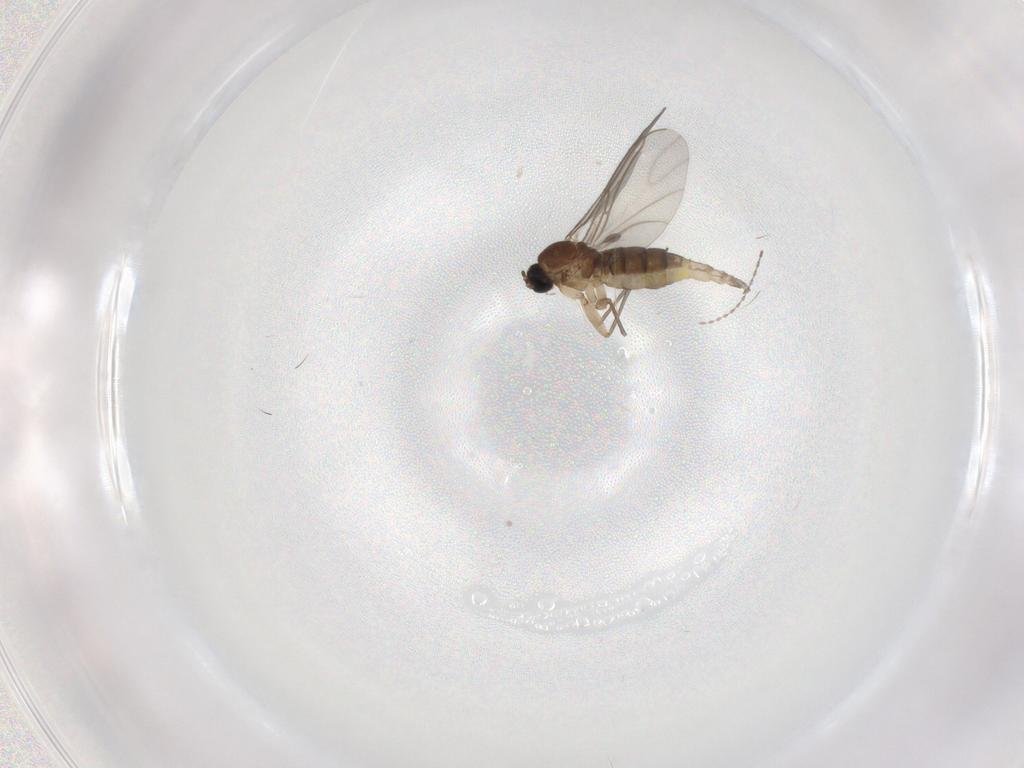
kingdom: Animalia
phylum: Arthropoda
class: Insecta
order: Diptera
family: Sciaridae
